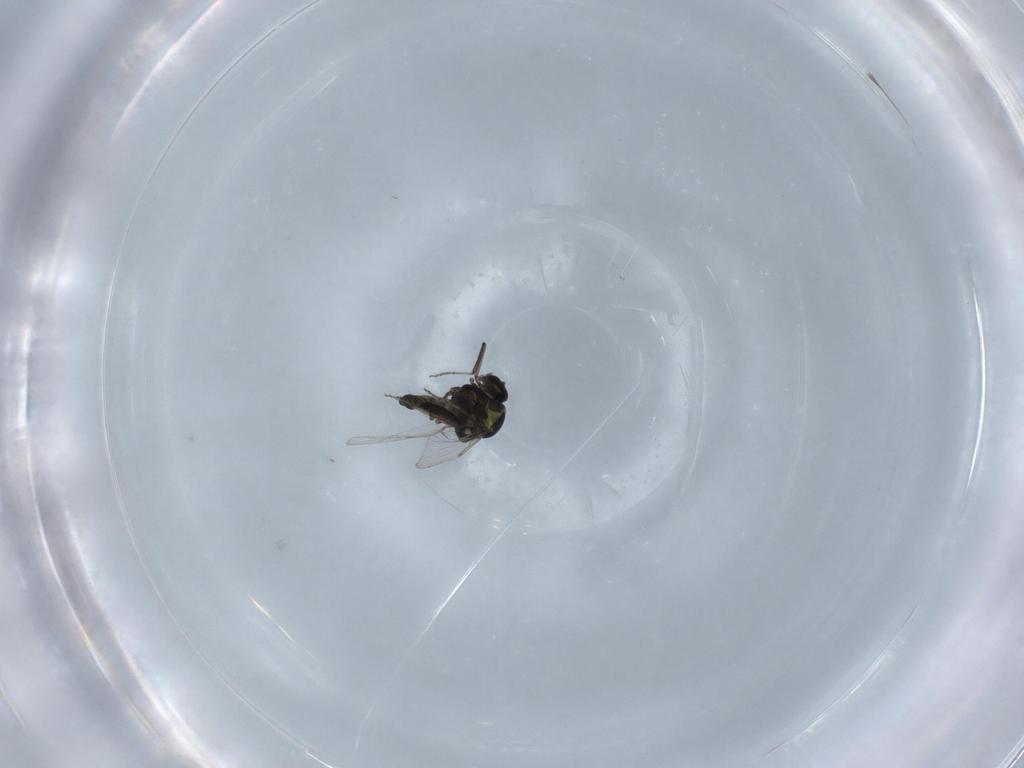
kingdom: Animalia
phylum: Arthropoda
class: Insecta
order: Diptera
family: Ceratopogonidae
